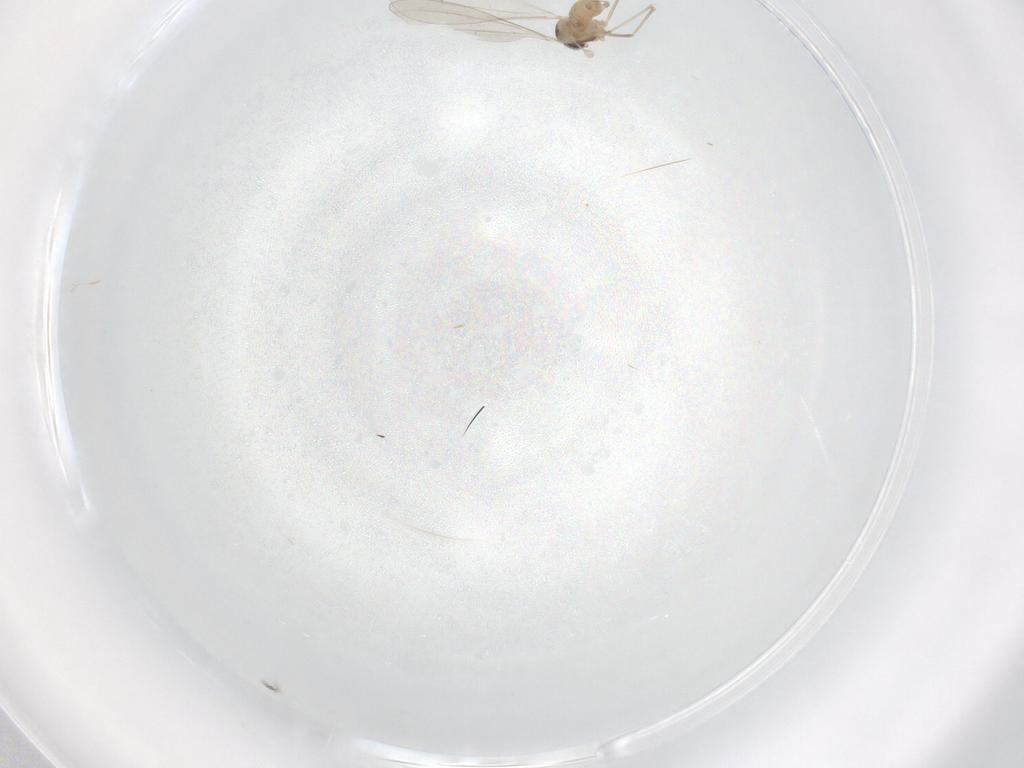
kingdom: Animalia
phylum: Arthropoda
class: Insecta
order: Diptera
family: Cecidomyiidae
